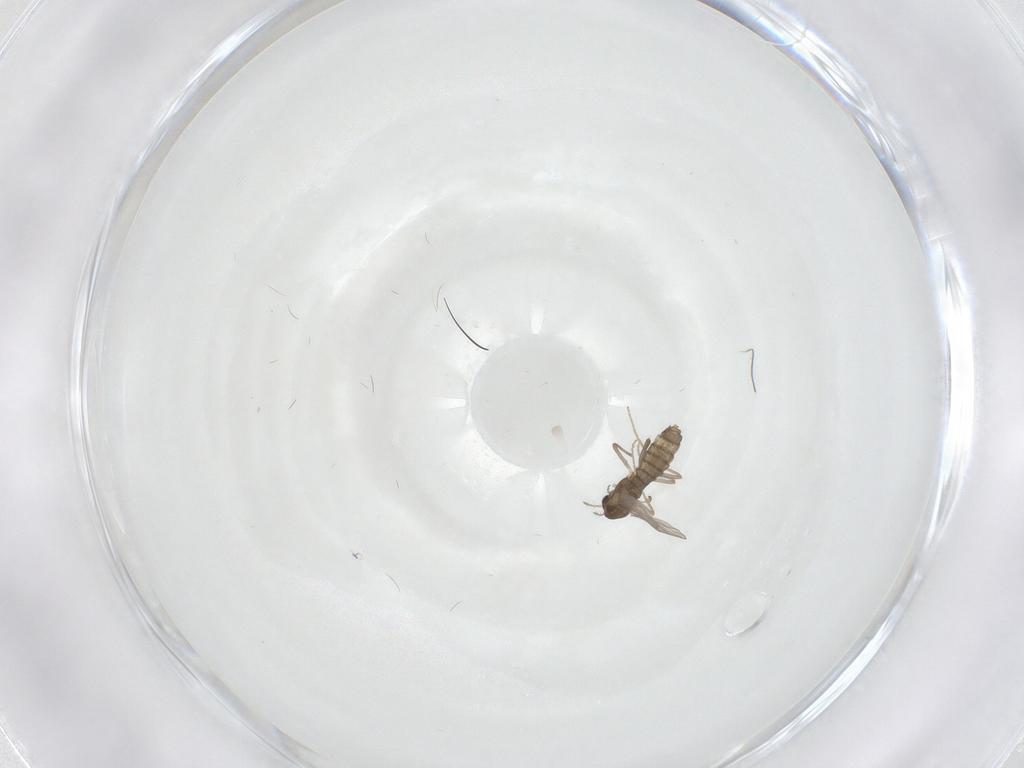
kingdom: Animalia
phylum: Arthropoda
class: Insecta
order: Diptera
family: Chironomidae
